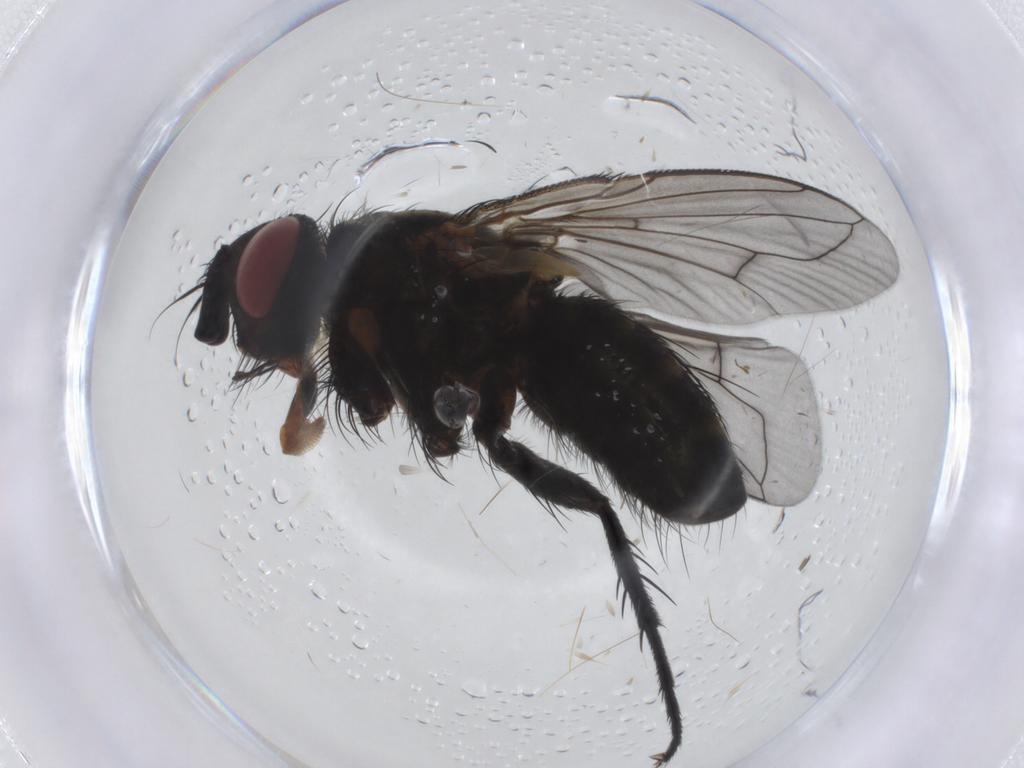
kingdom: Animalia
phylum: Arthropoda
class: Insecta
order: Diptera
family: Tachinidae
